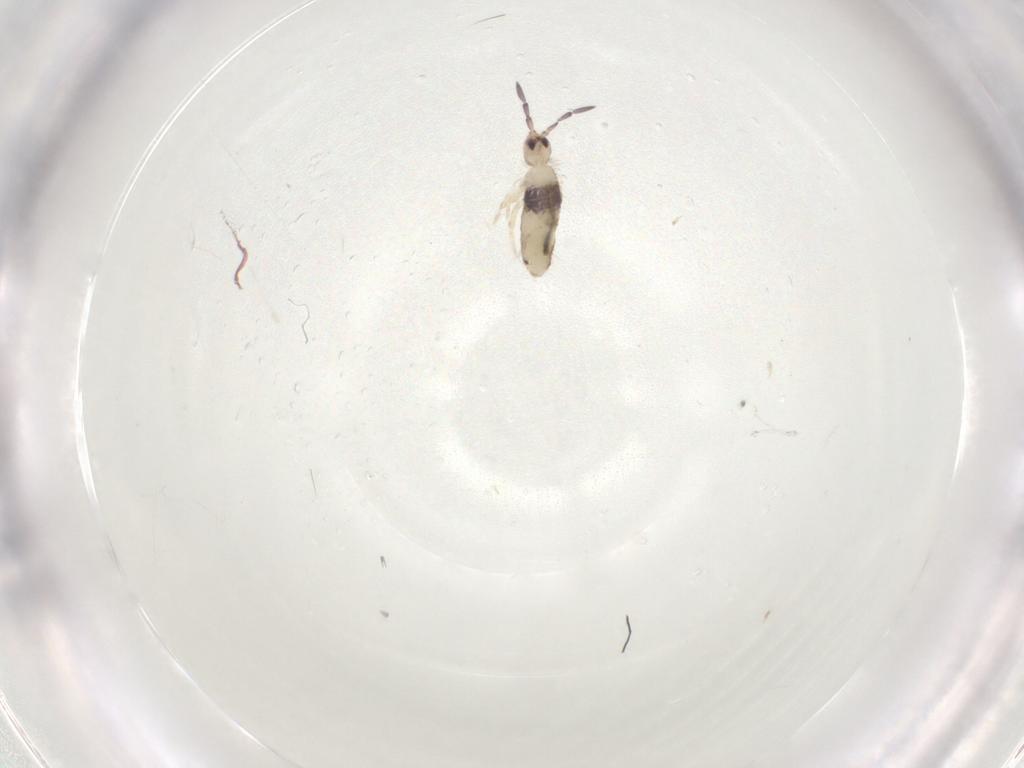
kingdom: Animalia
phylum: Arthropoda
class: Collembola
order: Entomobryomorpha
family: Entomobryidae
